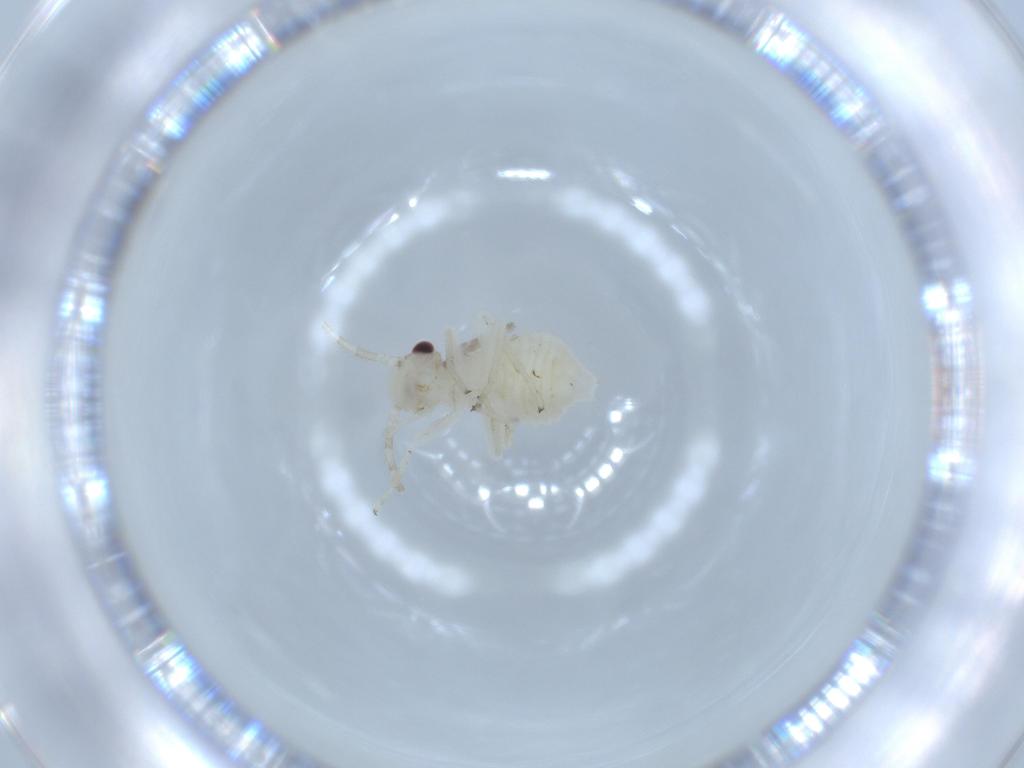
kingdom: Animalia
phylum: Arthropoda
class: Insecta
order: Psocodea
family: Amphipsocidae
